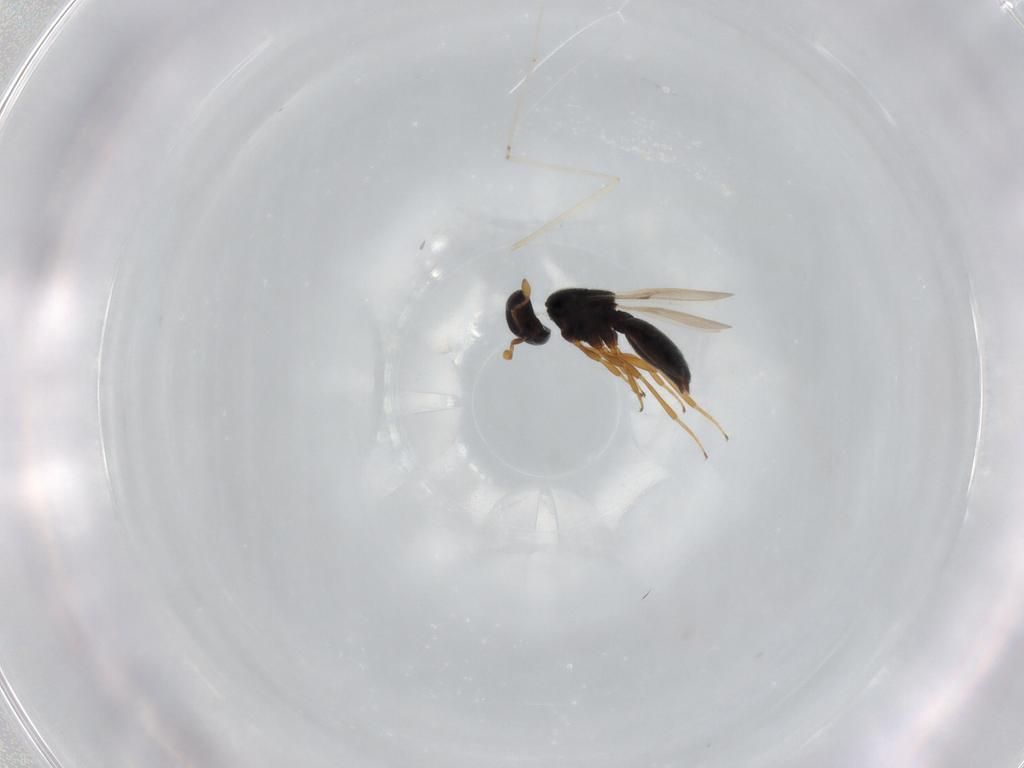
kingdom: Animalia
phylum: Arthropoda
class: Insecta
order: Hymenoptera
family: Scelionidae
